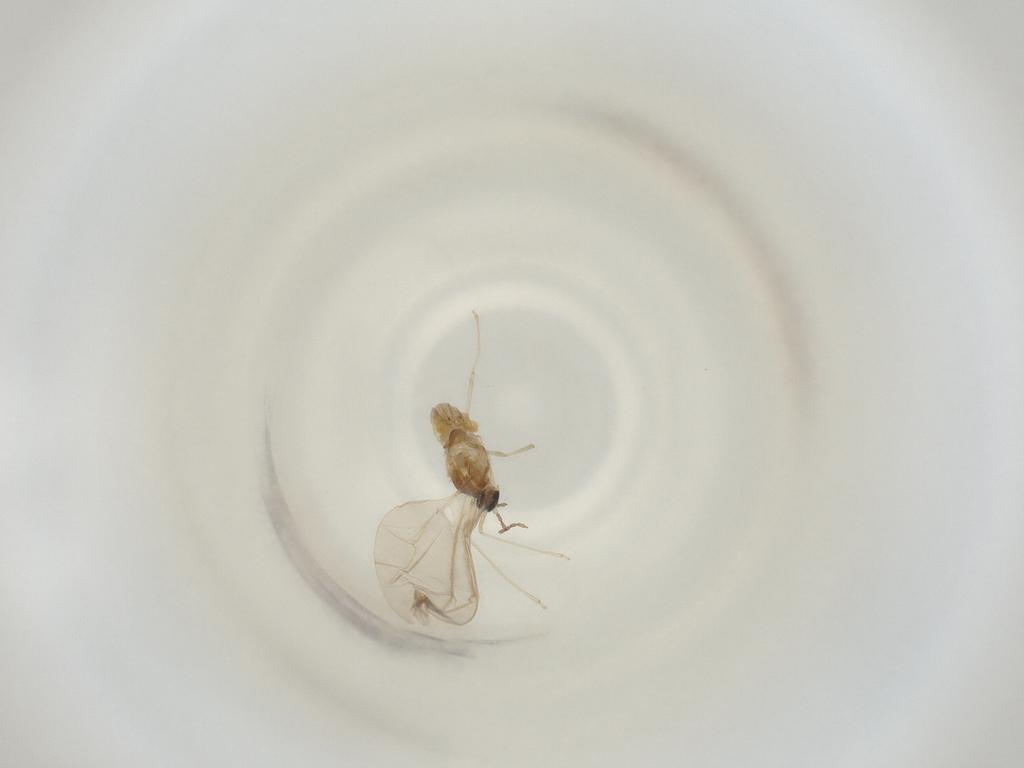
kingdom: Animalia
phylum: Arthropoda
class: Insecta
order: Diptera
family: Cecidomyiidae
